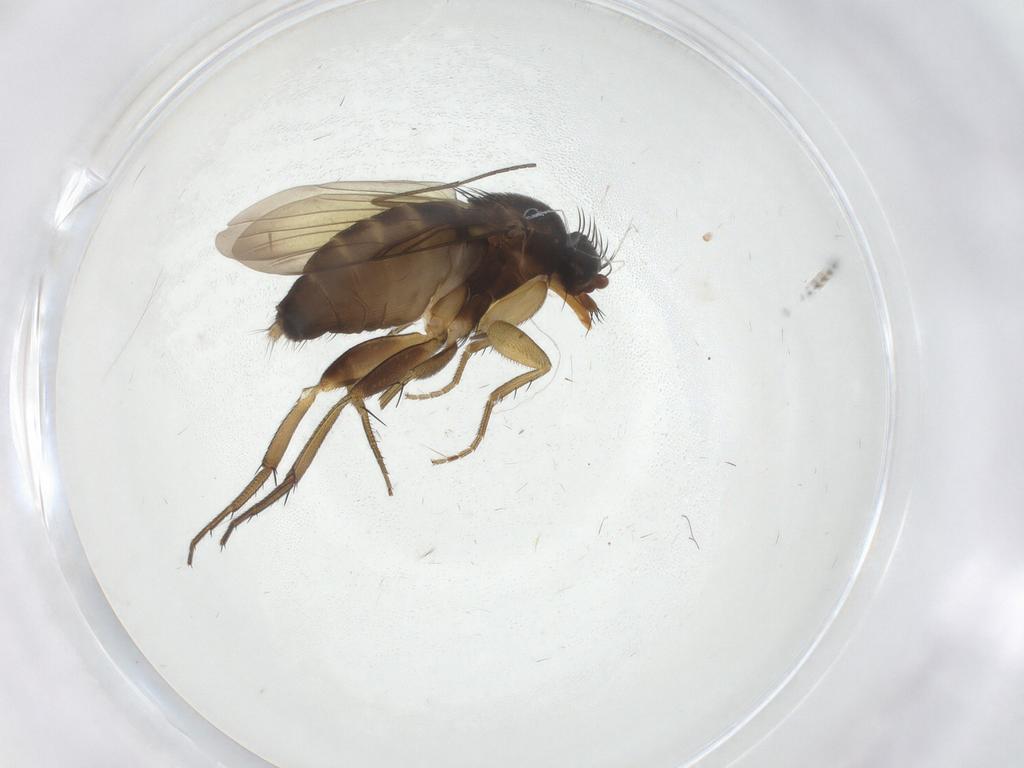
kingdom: Animalia
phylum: Arthropoda
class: Insecta
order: Diptera
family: Phoridae
